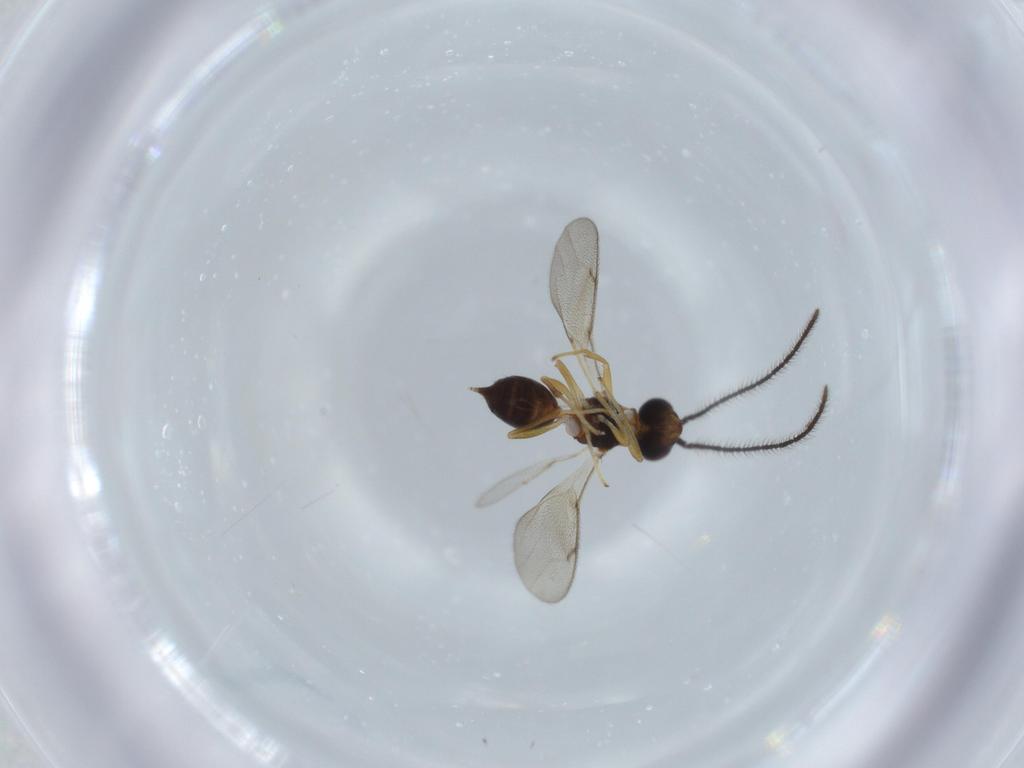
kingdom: Animalia
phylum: Arthropoda
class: Insecta
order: Hymenoptera
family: Diparidae
